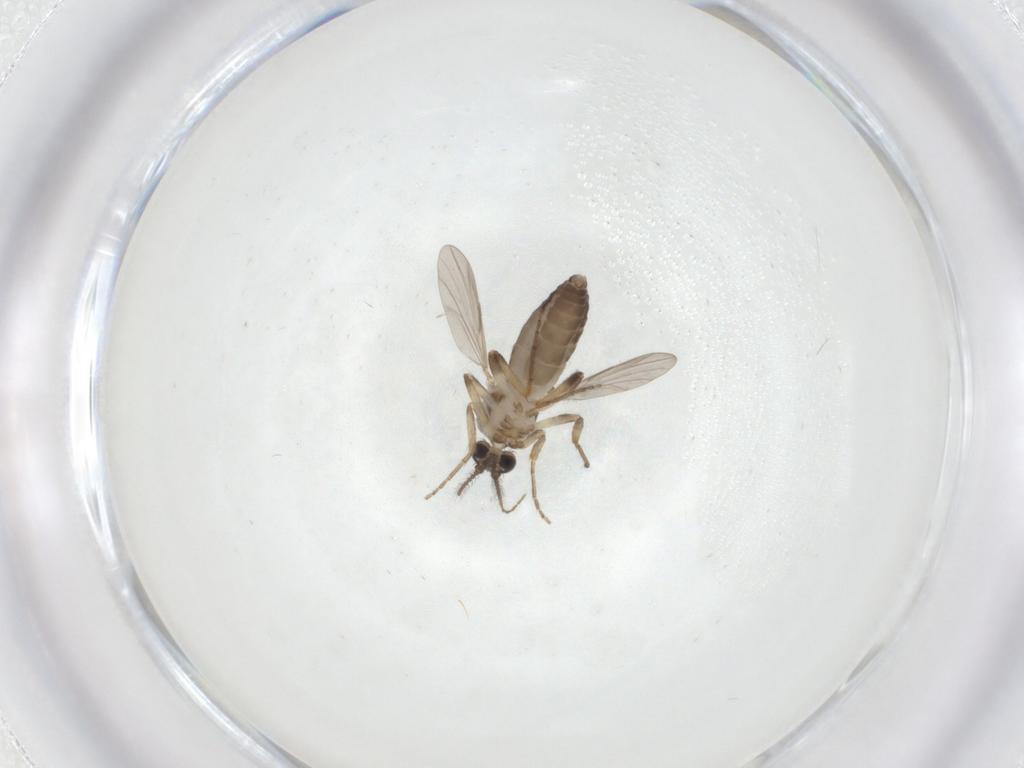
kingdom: Animalia
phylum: Arthropoda
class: Insecta
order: Diptera
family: Ceratopogonidae
